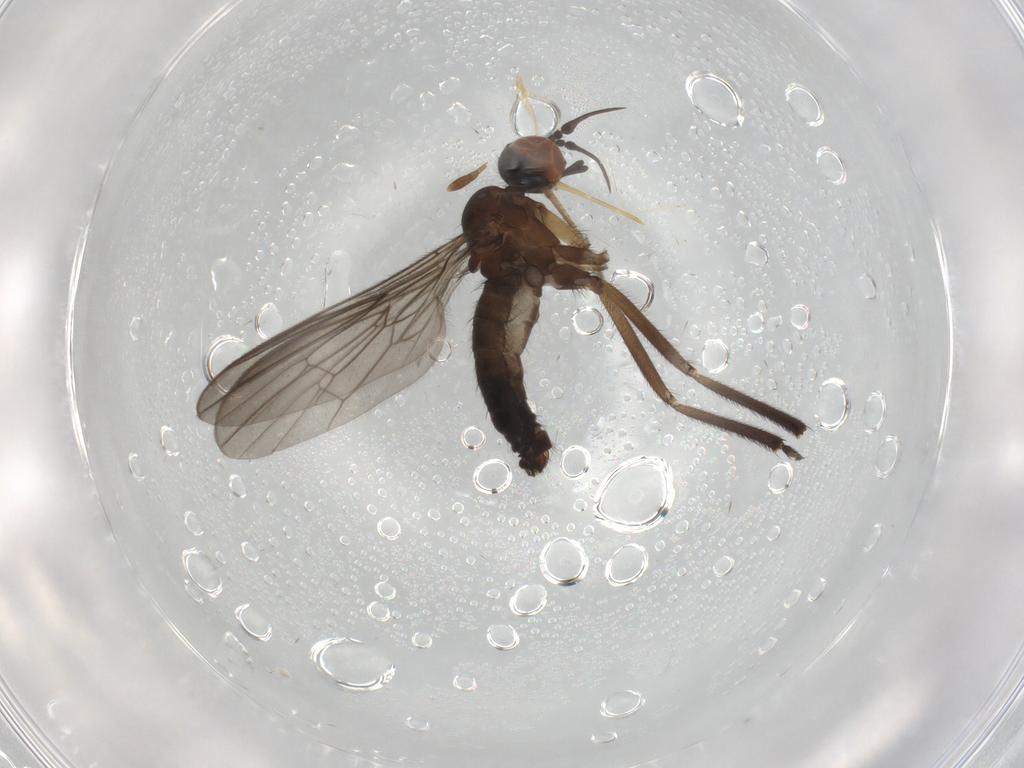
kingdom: Animalia
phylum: Arthropoda
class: Insecta
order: Diptera
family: Empididae
